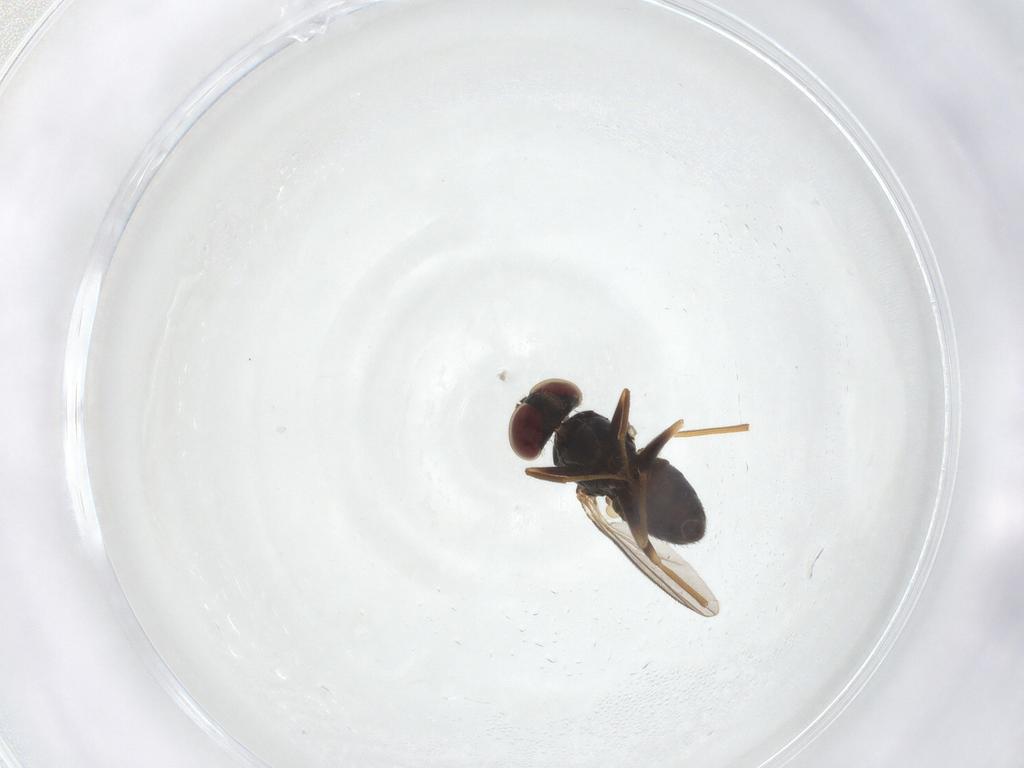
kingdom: Animalia
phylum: Arthropoda
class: Insecta
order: Diptera
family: Dolichopodidae
